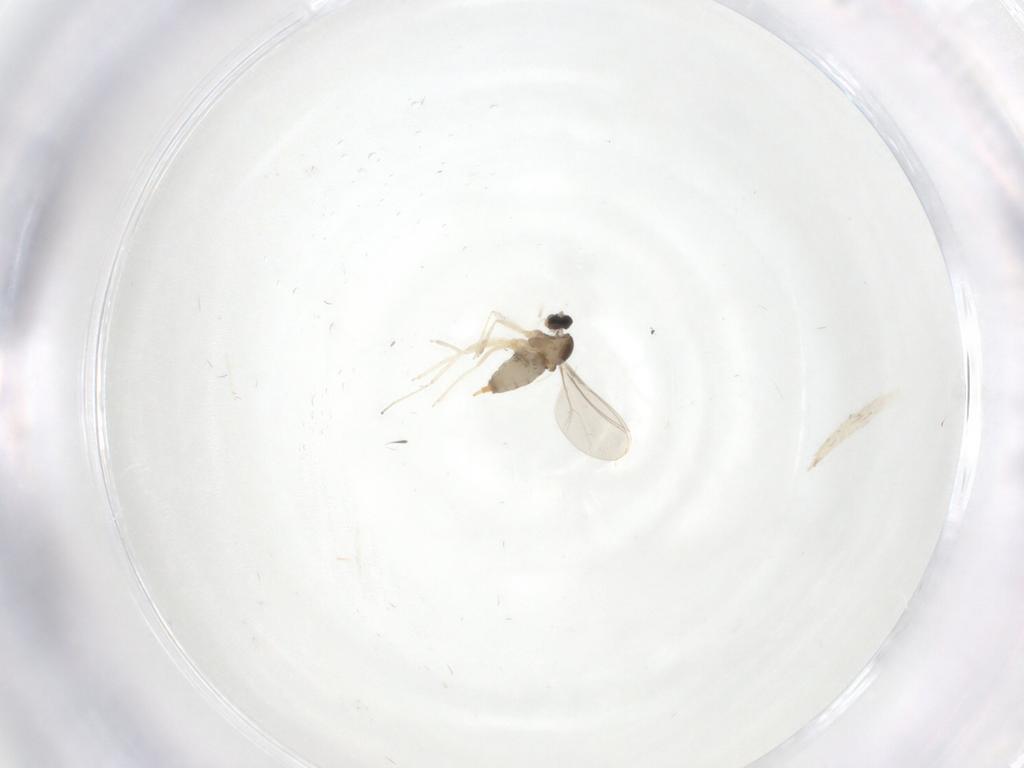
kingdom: Animalia
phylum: Arthropoda
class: Insecta
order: Diptera
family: Cecidomyiidae
